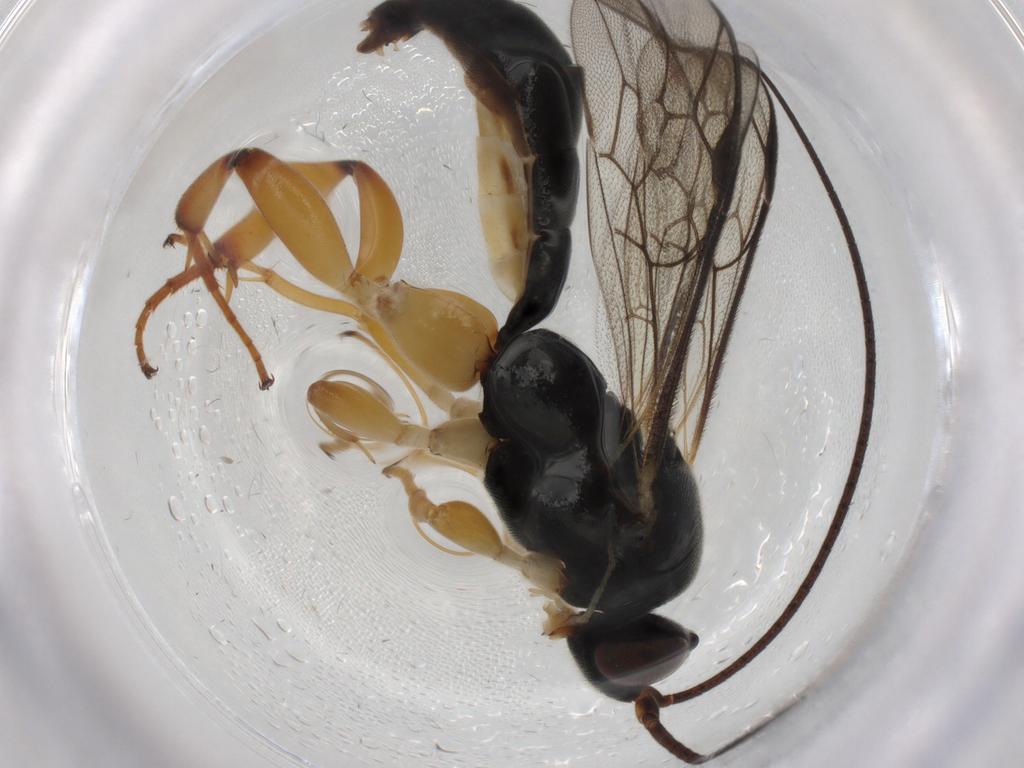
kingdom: Animalia
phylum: Arthropoda
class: Insecta
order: Hymenoptera
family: Ichneumonidae
